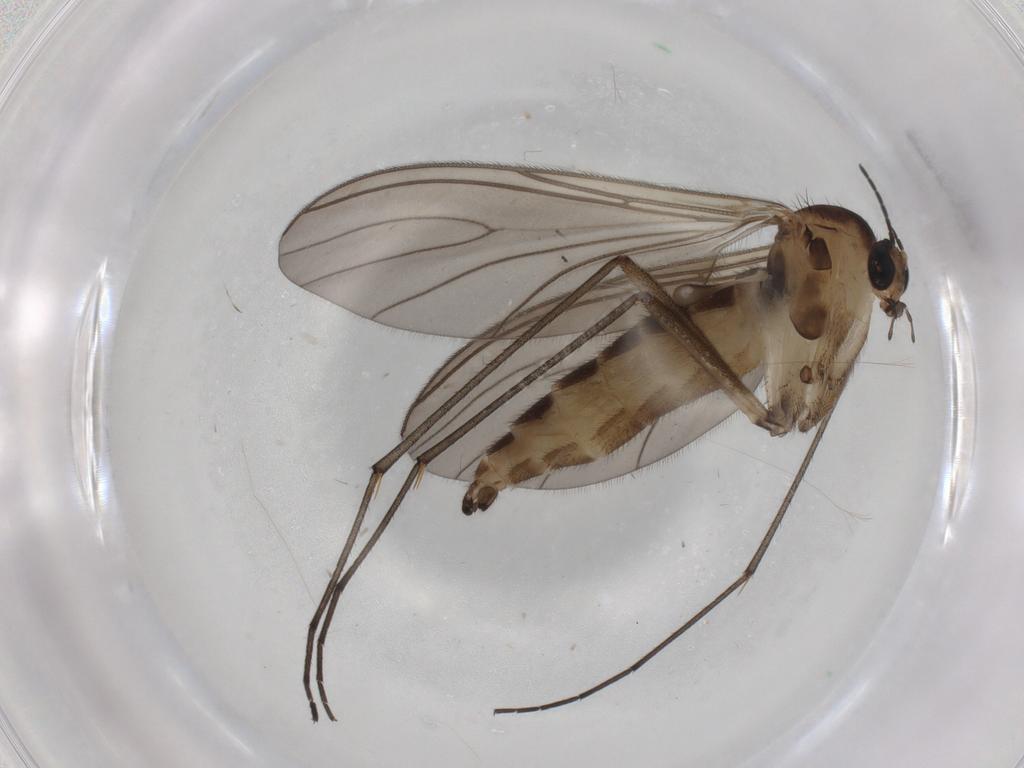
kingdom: Animalia
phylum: Arthropoda
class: Insecta
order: Diptera
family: Sciaridae
